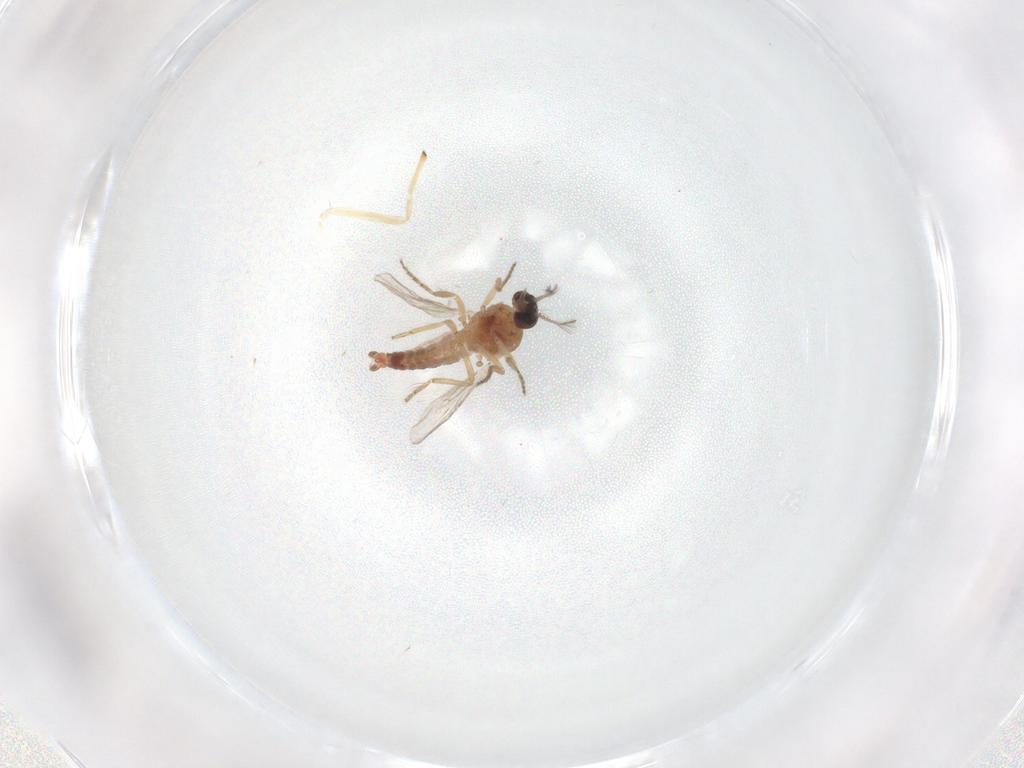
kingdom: Animalia
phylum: Arthropoda
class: Insecta
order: Diptera
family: Ceratopogonidae
